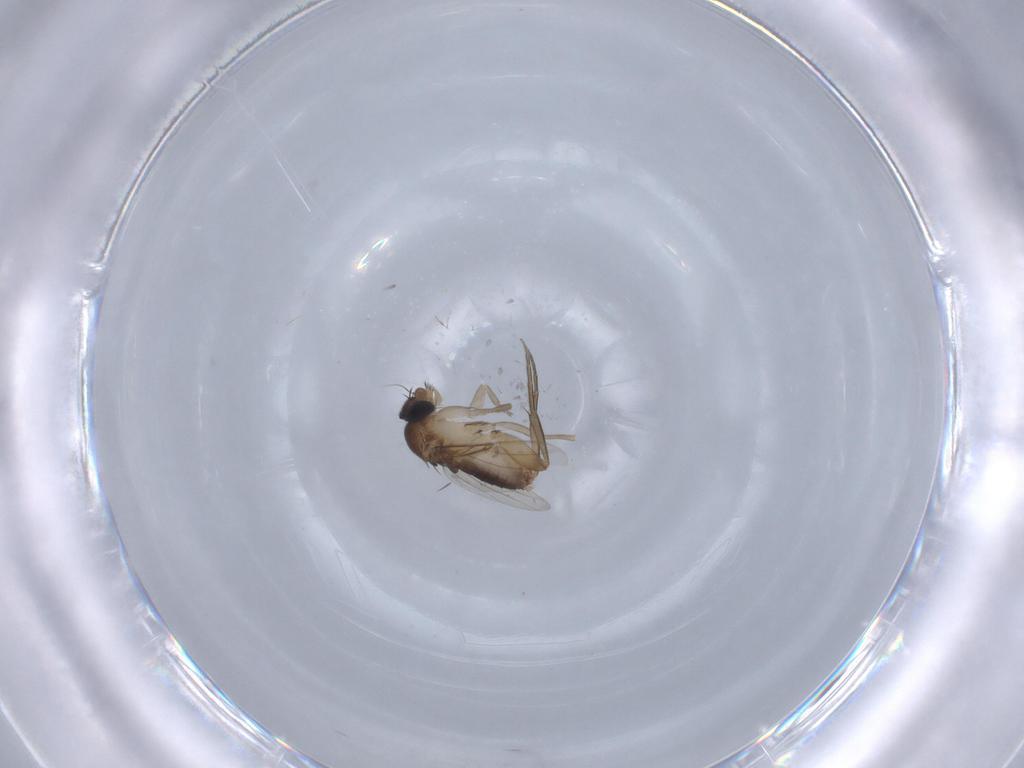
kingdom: Animalia
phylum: Arthropoda
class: Insecta
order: Diptera
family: Phoridae
